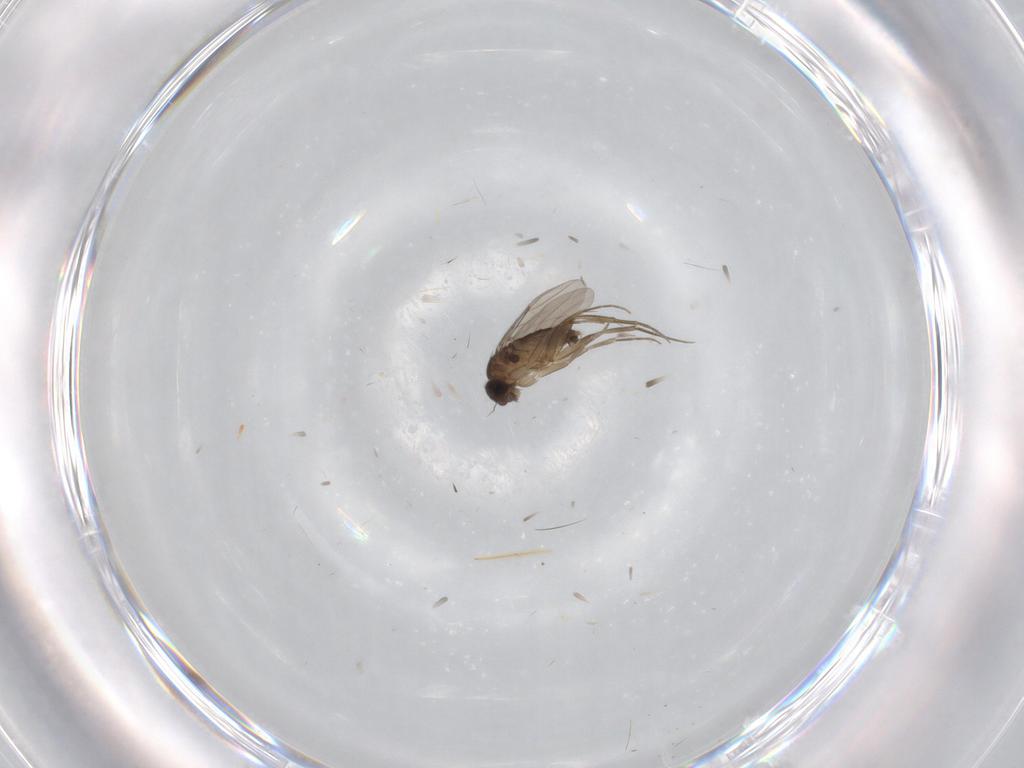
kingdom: Animalia
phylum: Arthropoda
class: Insecta
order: Diptera
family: Phoridae
